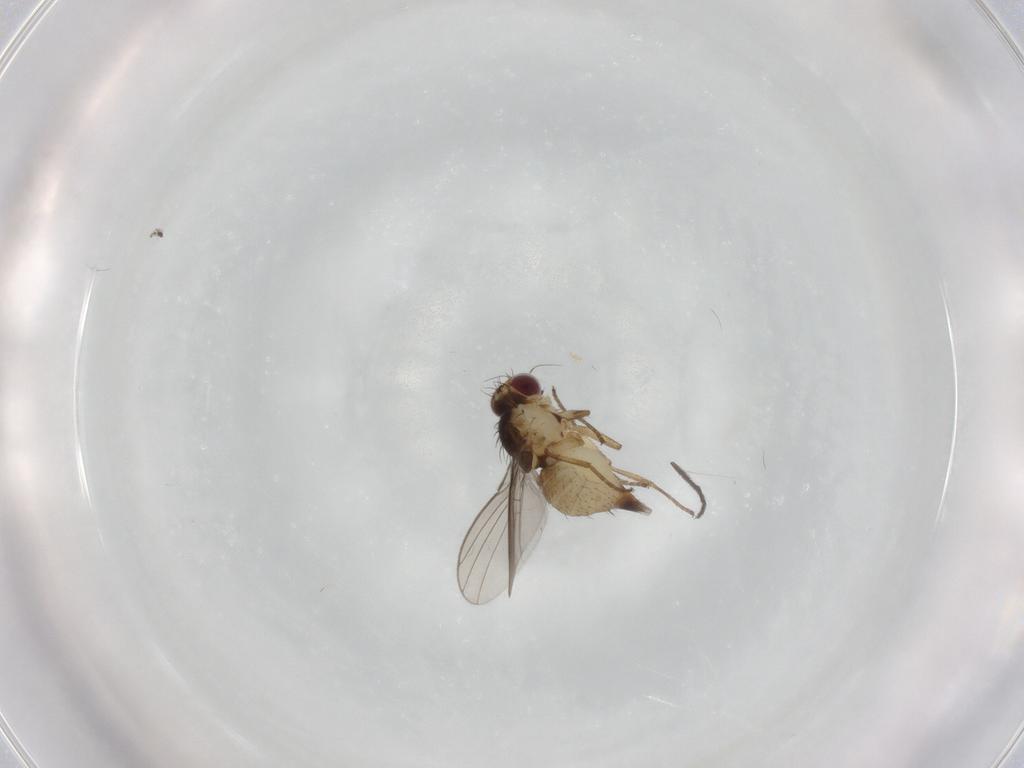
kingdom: Animalia
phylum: Arthropoda
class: Insecta
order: Diptera
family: Agromyzidae
